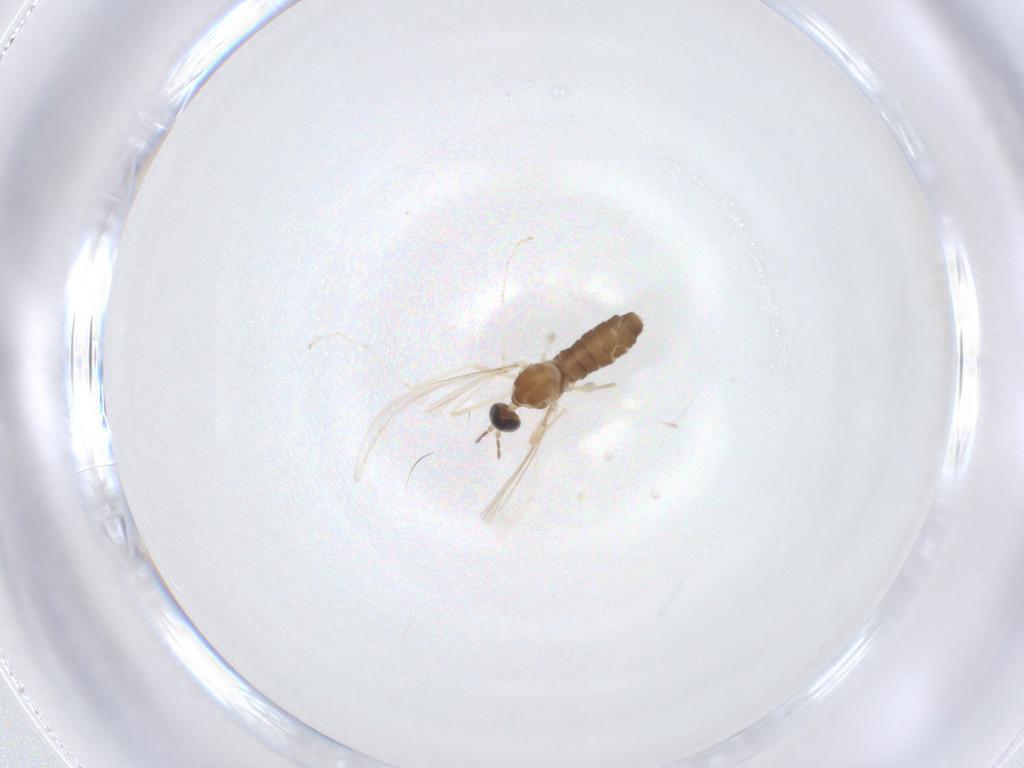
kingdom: Animalia
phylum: Arthropoda
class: Insecta
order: Diptera
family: Cecidomyiidae
